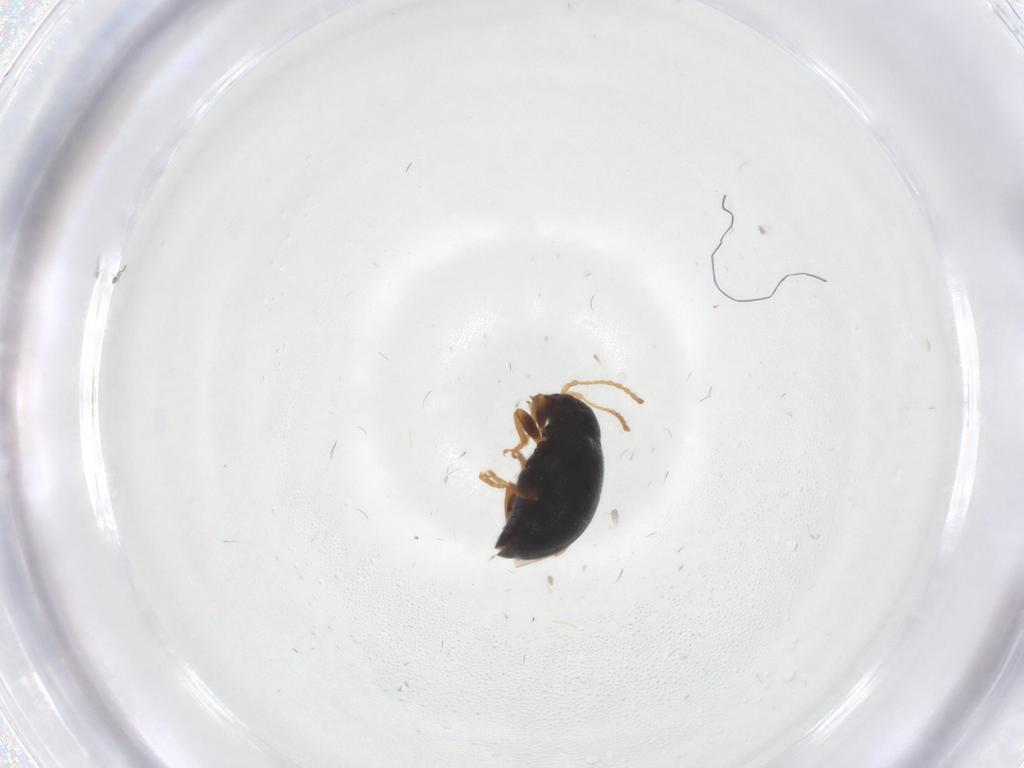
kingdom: Animalia
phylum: Arthropoda
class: Insecta
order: Coleoptera
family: Chrysomelidae
